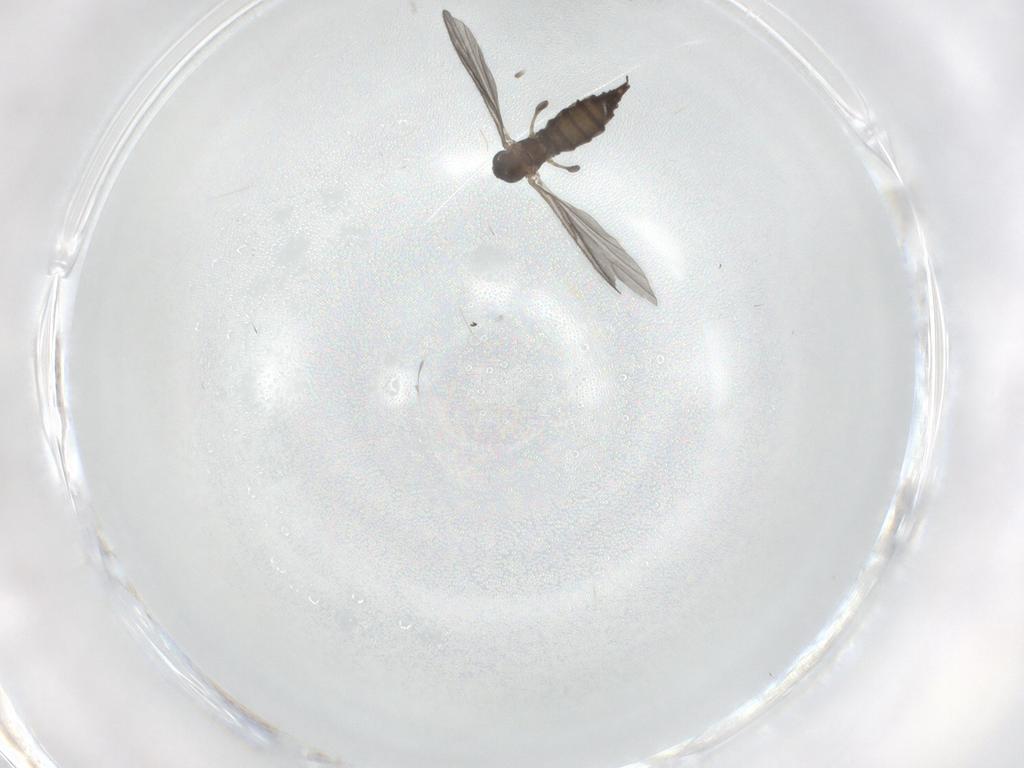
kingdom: Animalia
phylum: Arthropoda
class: Insecta
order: Diptera
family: Sciaridae
